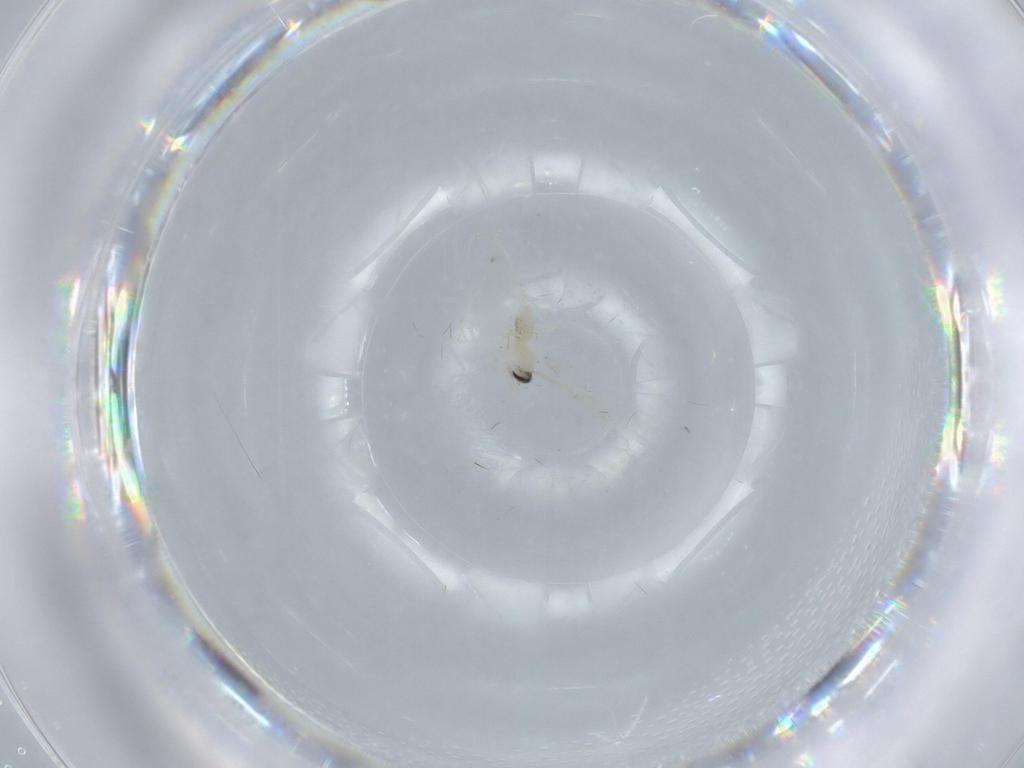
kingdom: Animalia
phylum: Arthropoda
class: Insecta
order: Diptera
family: Cecidomyiidae
